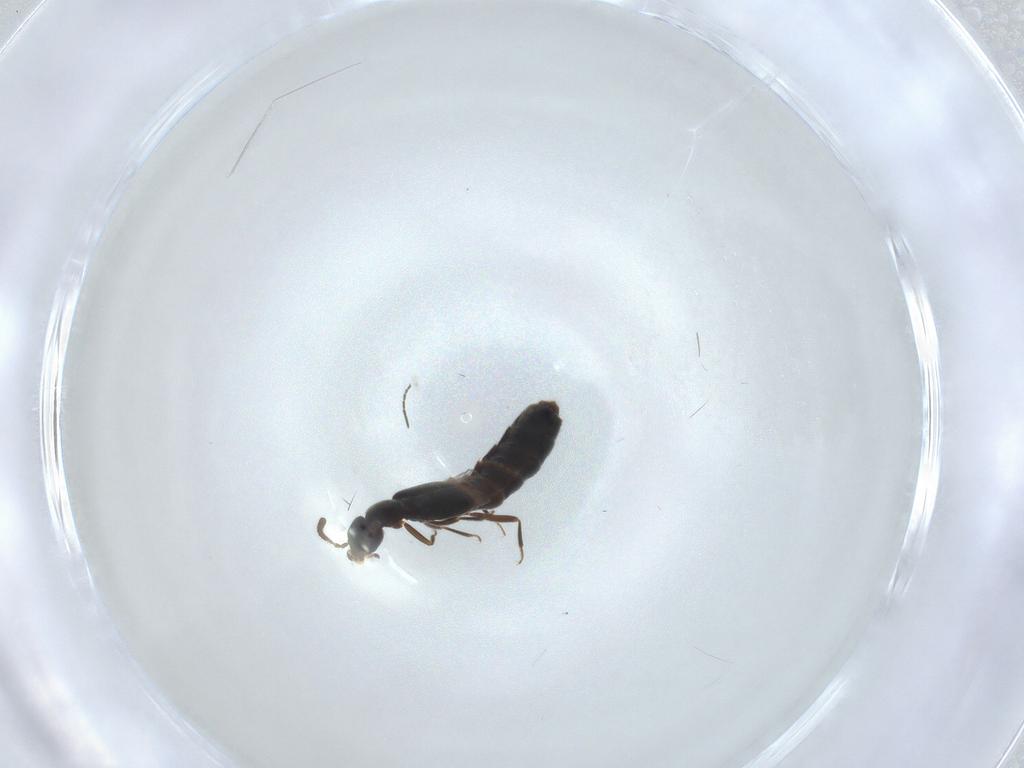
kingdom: Animalia
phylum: Arthropoda
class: Insecta
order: Coleoptera
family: Staphylinidae
